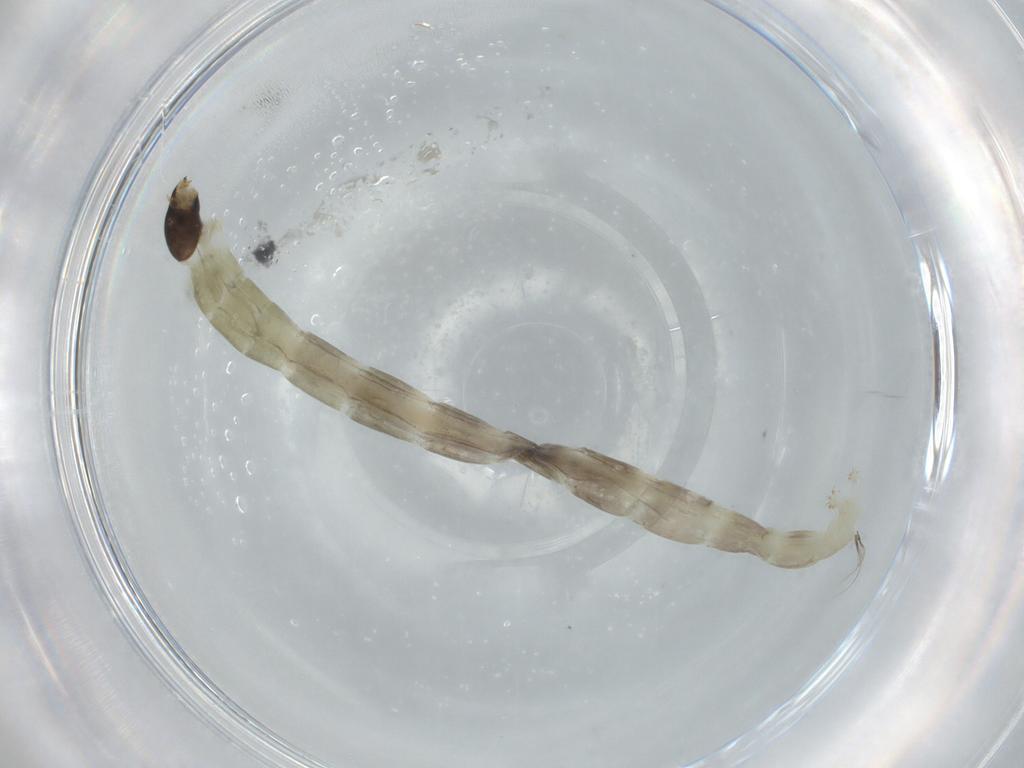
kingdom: Animalia
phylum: Arthropoda
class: Insecta
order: Diptera
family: Chironomidae
